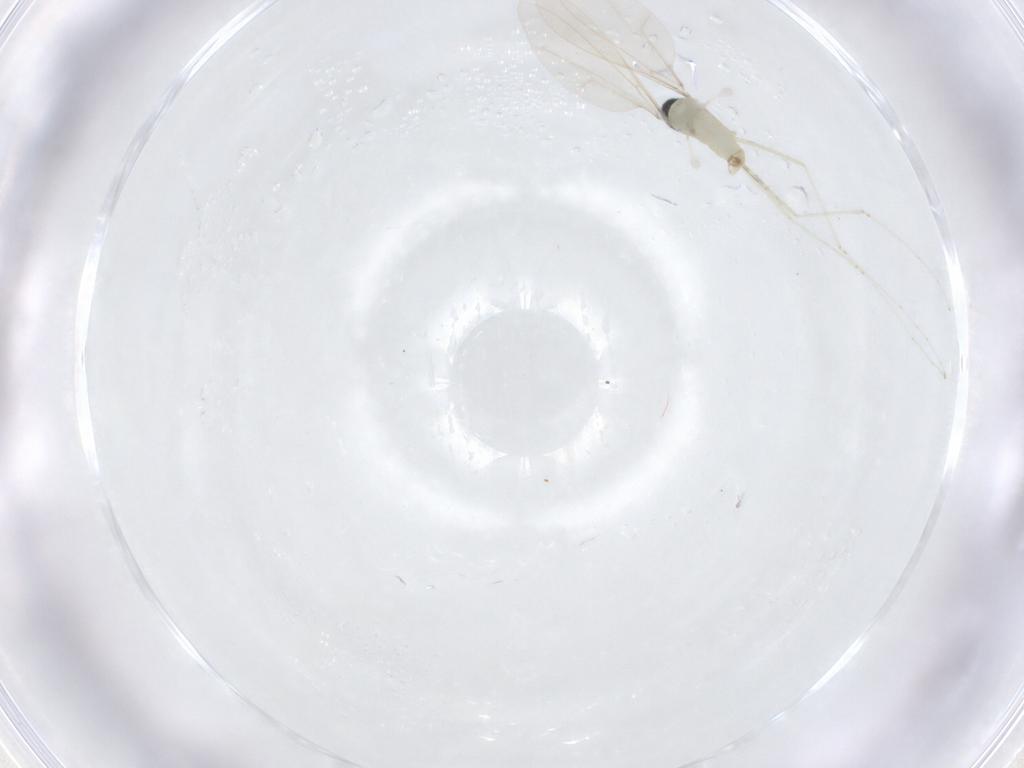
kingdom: Animalia
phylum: Arthropoda
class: Insecta
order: Diptera
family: Cecidomyiidae
